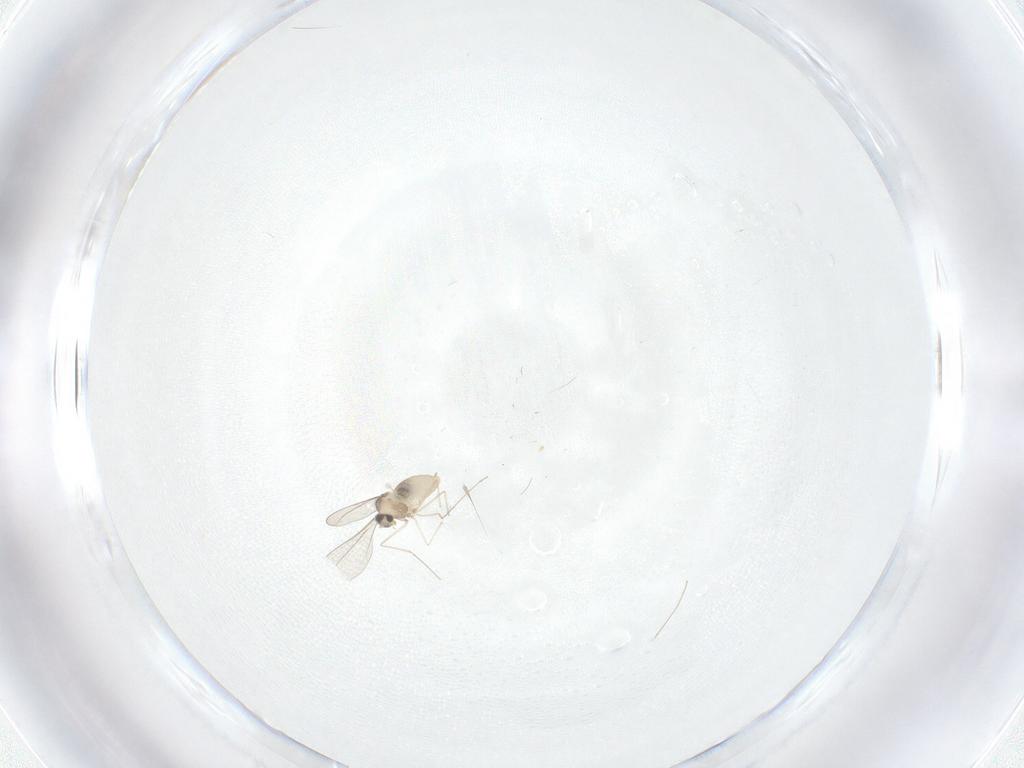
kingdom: Animalia
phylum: Arthropoda
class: Insecta
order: Diptera
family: Cecidomyiidae
